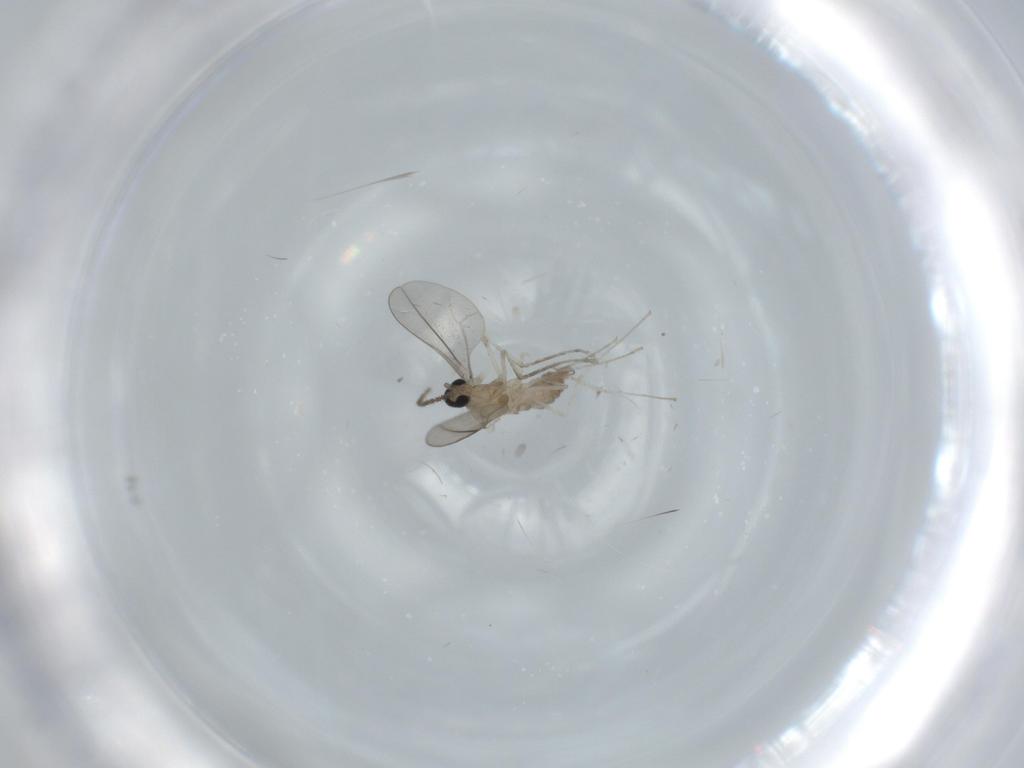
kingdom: Animalia
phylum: Arthropoda
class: Insecta
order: Diptera
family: Cecidomyiidae
